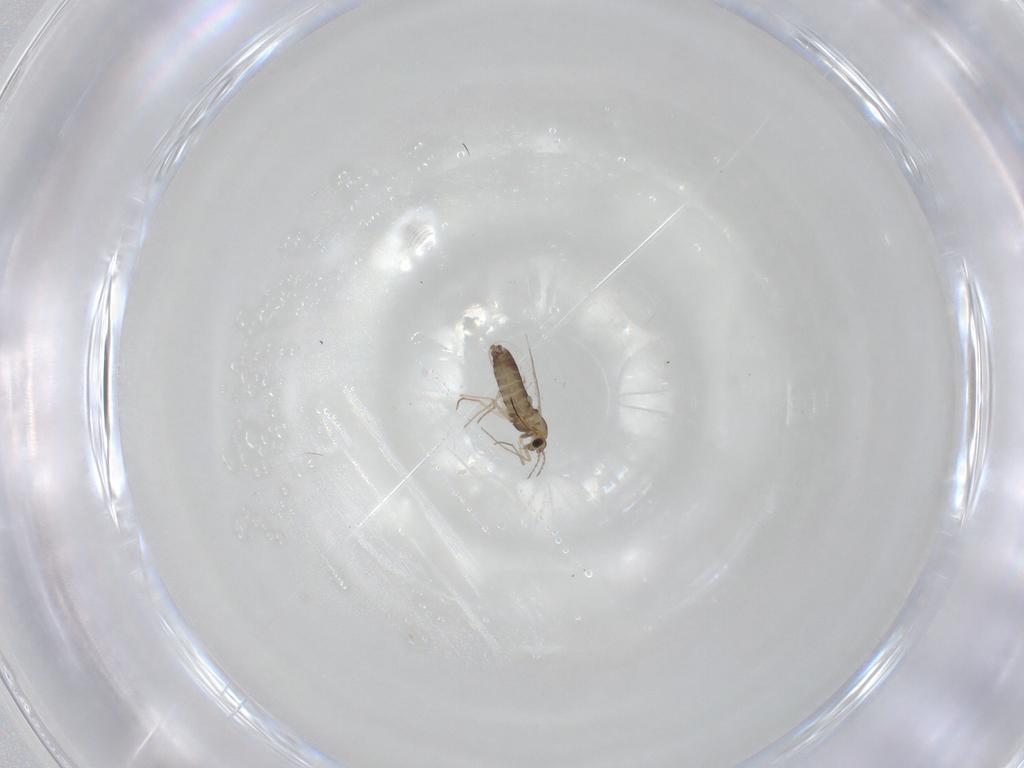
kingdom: Animalia
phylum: Arthropoda
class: Insecta
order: Diptera
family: Chironomidae
